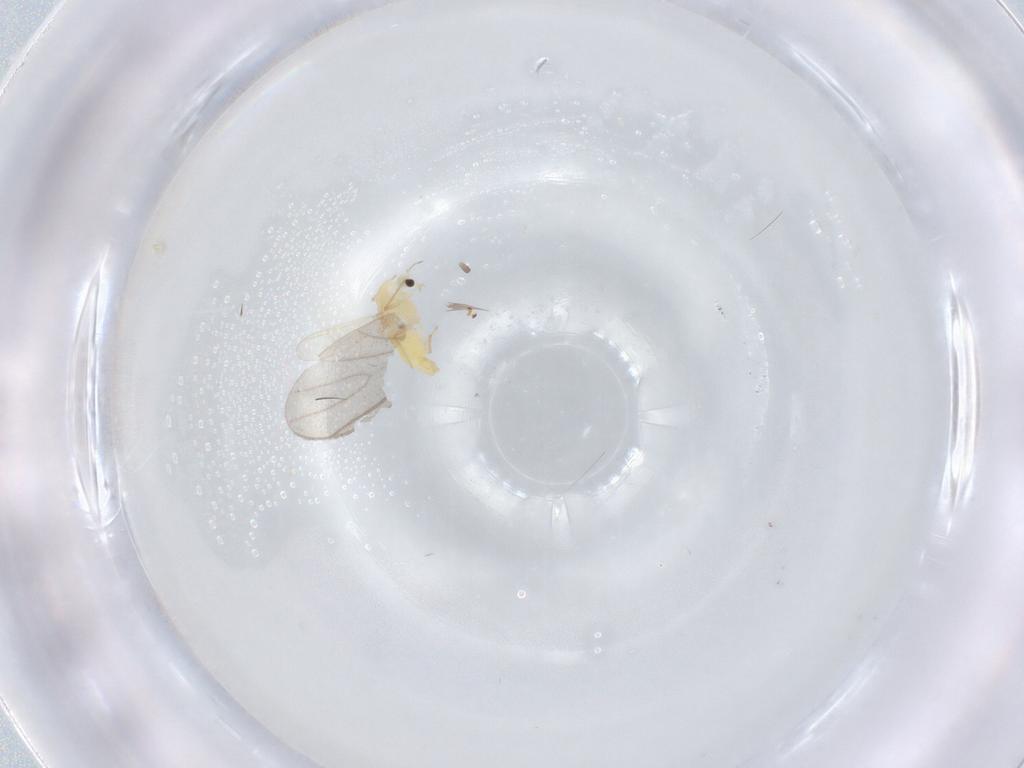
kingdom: Animalia
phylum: Arthropoda
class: Insecta
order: Diptera
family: Chironomidae
